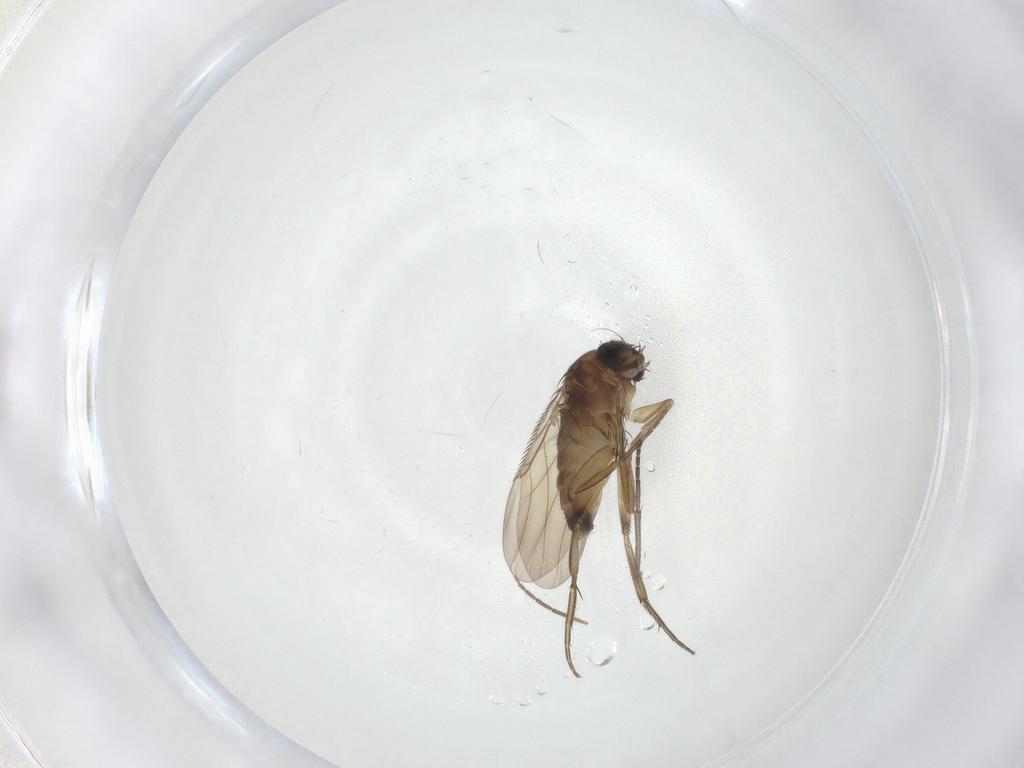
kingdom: Animalia
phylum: Arthropoda
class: Insecta
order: Diptera
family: Phoridae
